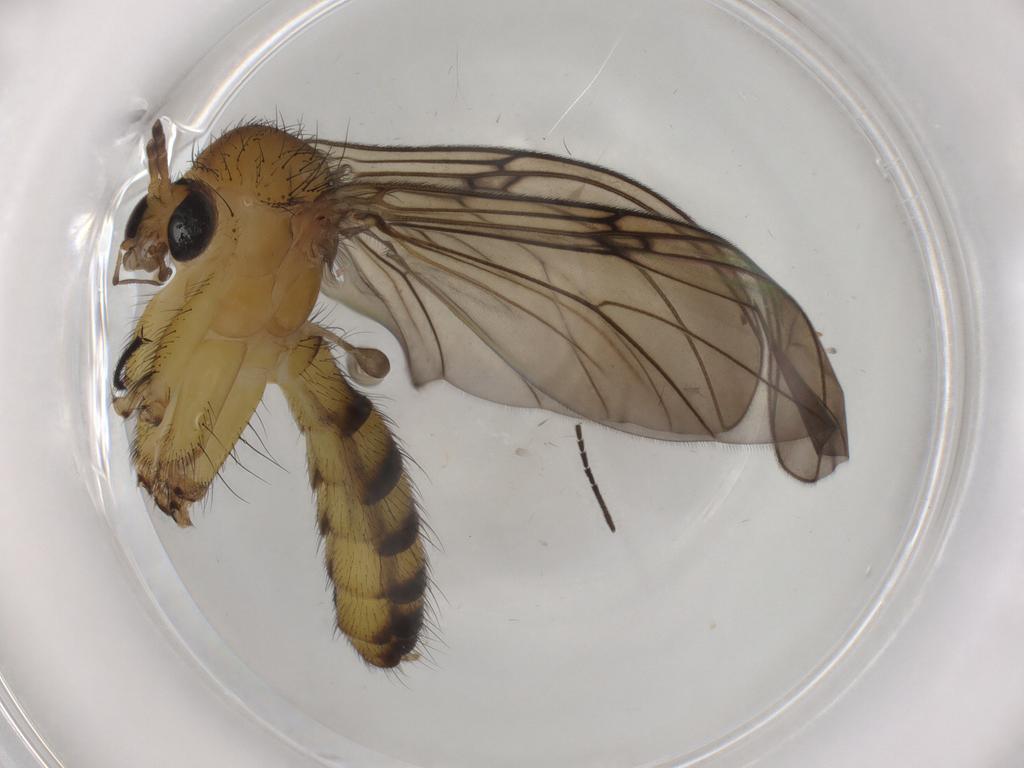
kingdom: Animalia
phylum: Arthropoda
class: Insecta
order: Diptera
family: Mycetophilidae
